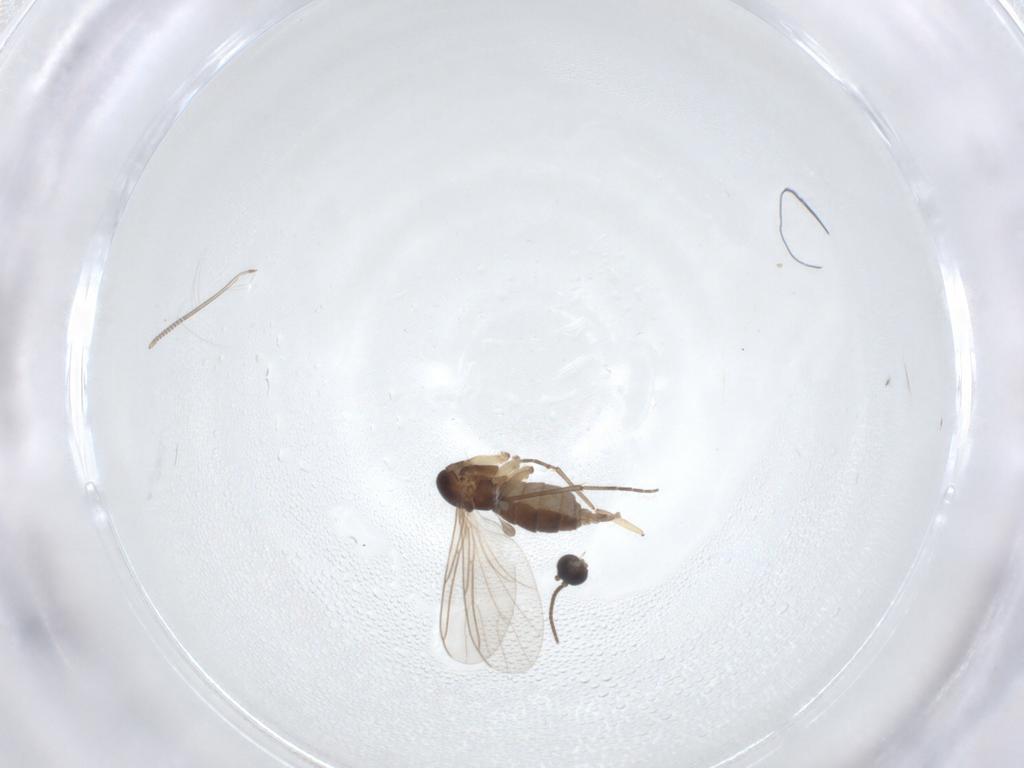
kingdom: Animalia
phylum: Arthropoda
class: Insecta
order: Diptera
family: Sciaridae
